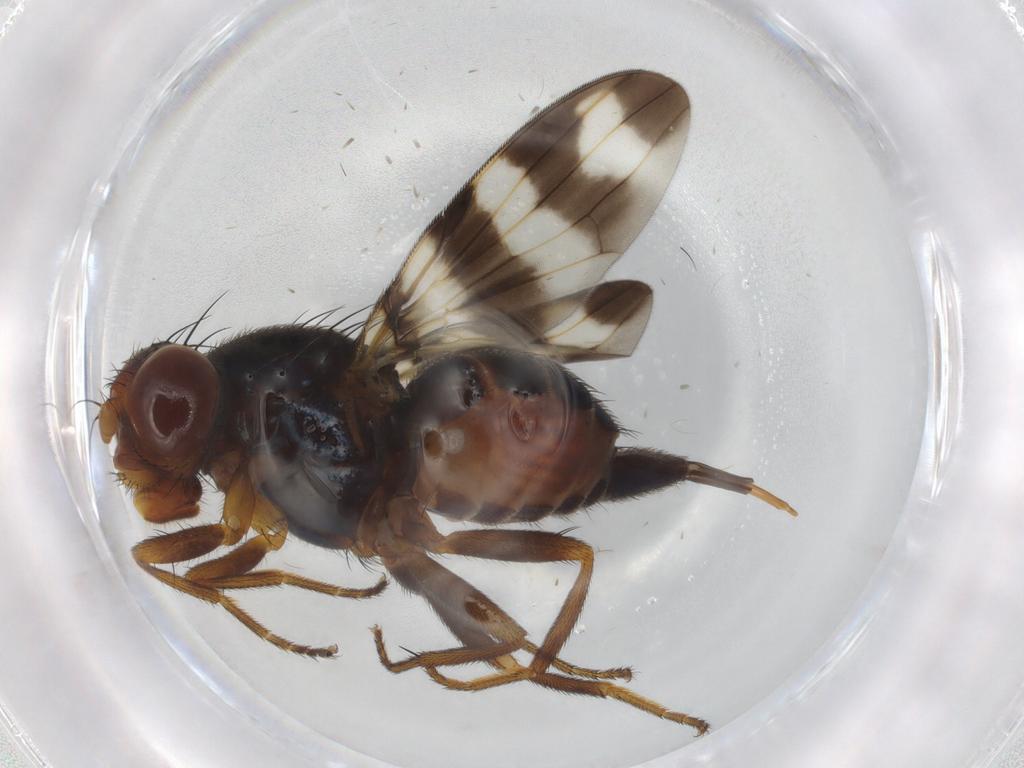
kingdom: Animalia
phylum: Arthropoda
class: Insecta
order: Diptera
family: Ulidiidae
